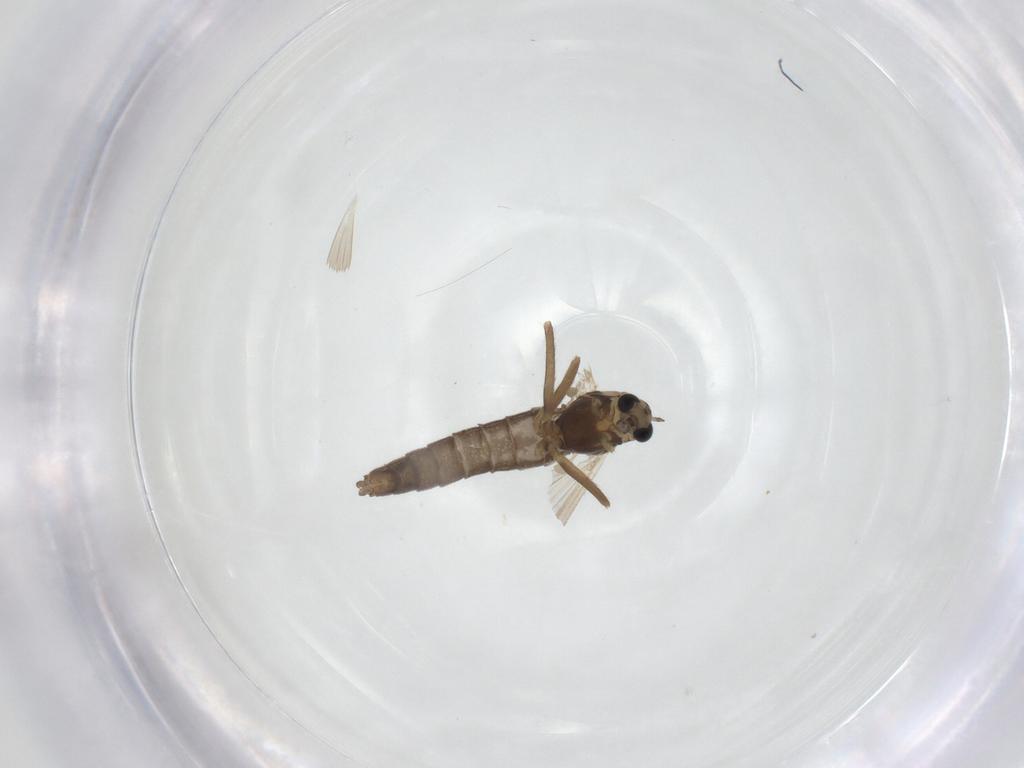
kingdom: Animalia
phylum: Arthropoda
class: Insecta
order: Diptera
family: Chironomidae
